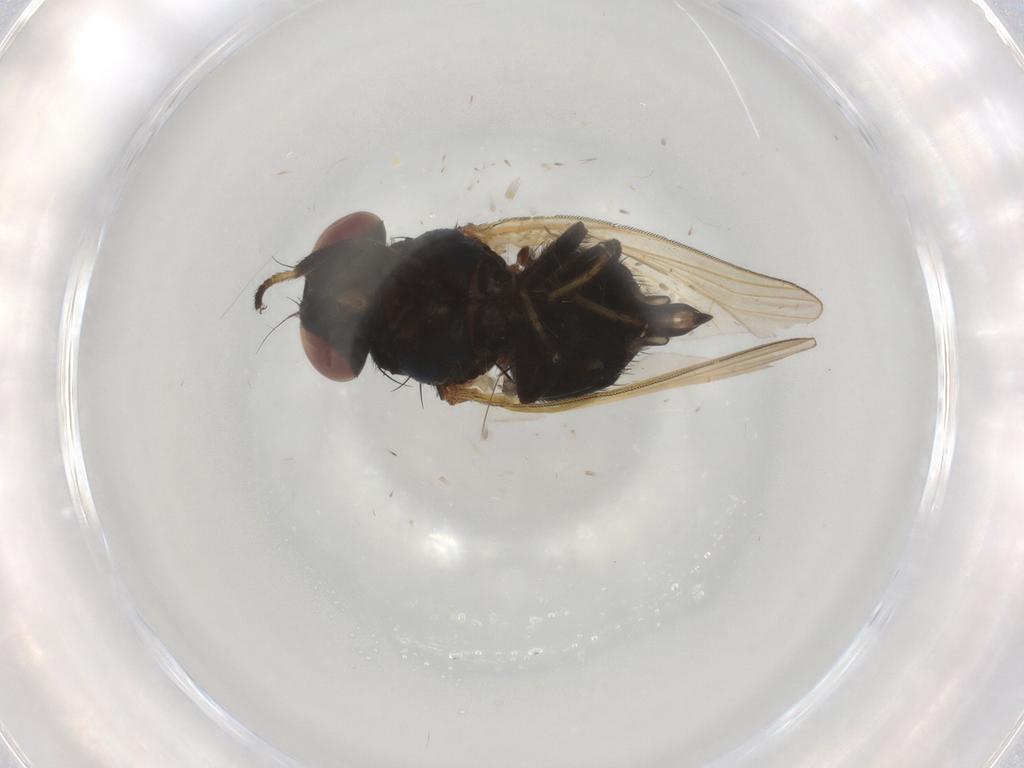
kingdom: Animalia
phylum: Arthropoda
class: Insecta
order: Diptera
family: Lonchaeidae
